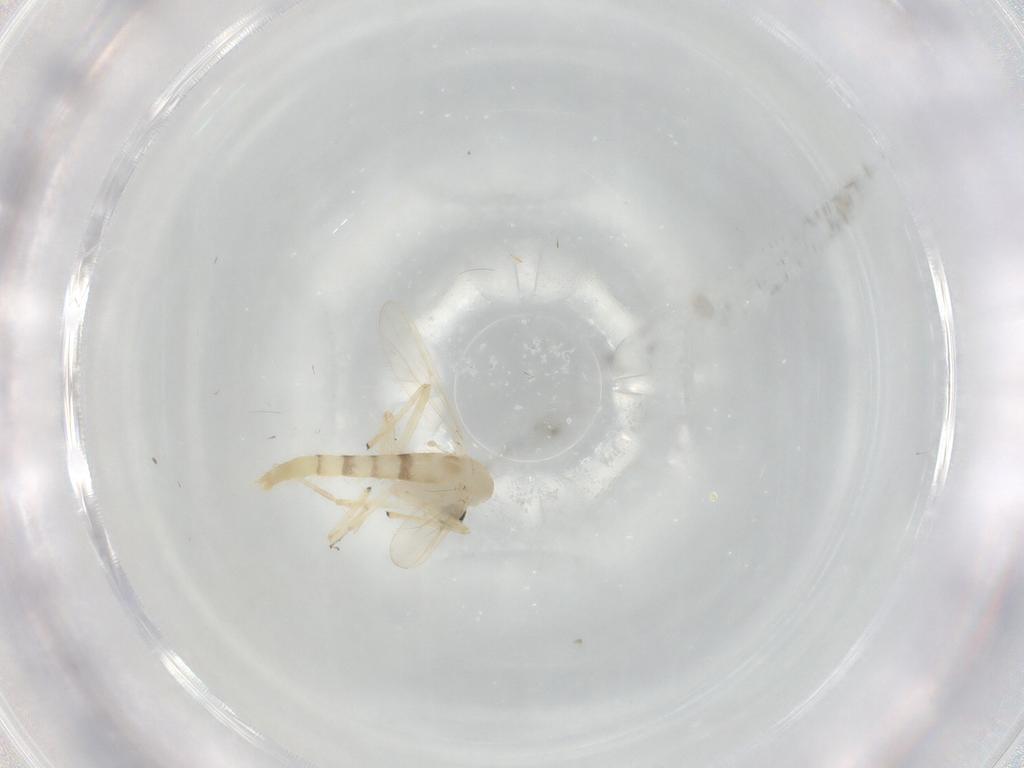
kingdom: Animalia
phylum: Arthropoda
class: Insecta
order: Diptera
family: Chironomidae
